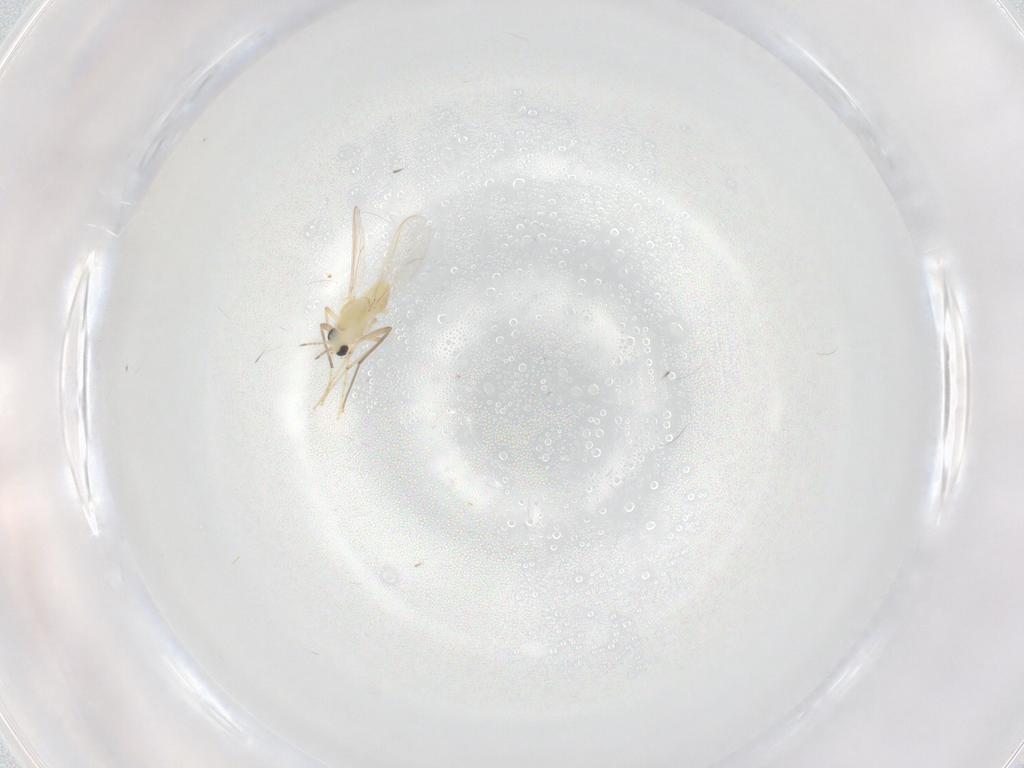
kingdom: Animalia
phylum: Arthropoda
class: Insecta
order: Diptera
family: Chironomidae
